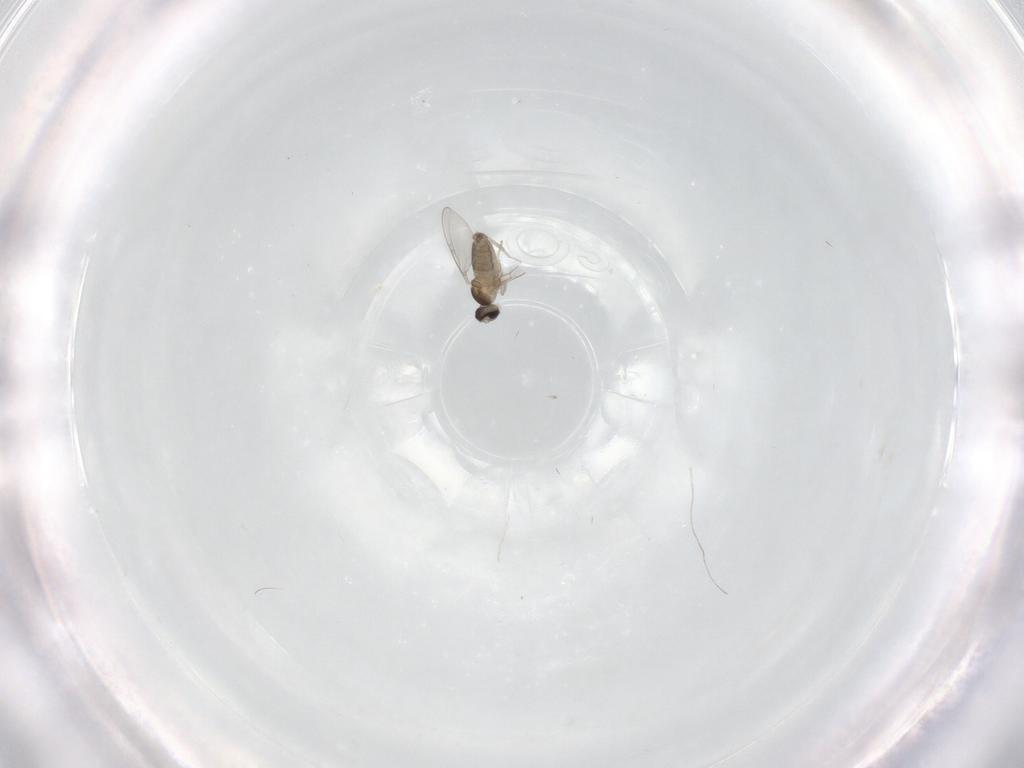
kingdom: Animalia
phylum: Arthropoda
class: Insecta
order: Diptera
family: Cecidomyiidae
